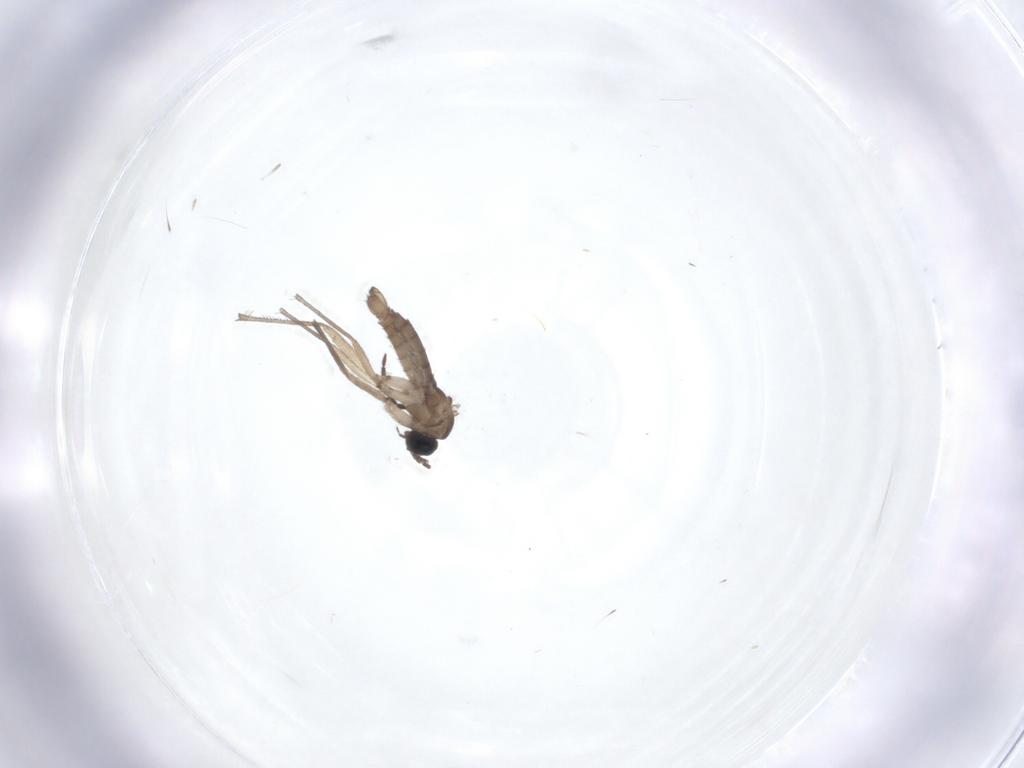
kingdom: Animalia
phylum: Arthropoda
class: Insecta
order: Diptera
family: Sciaridae
